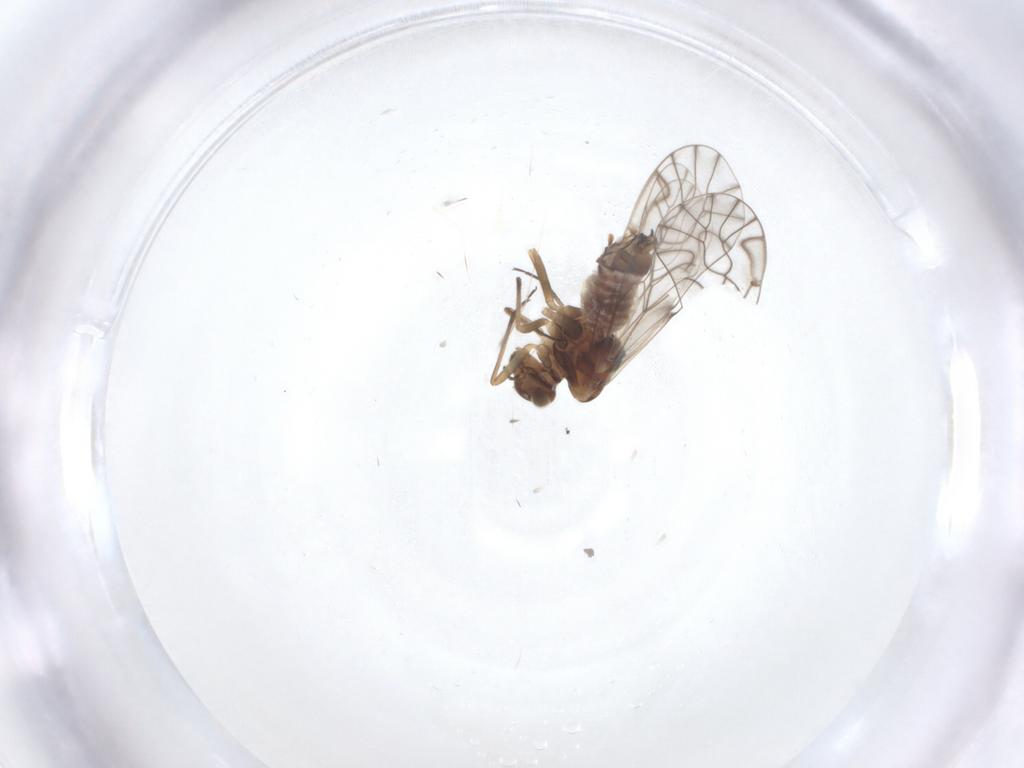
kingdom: Animalia
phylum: Arthropoda
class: Insecta
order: Psocodea
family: Lachesillidae
